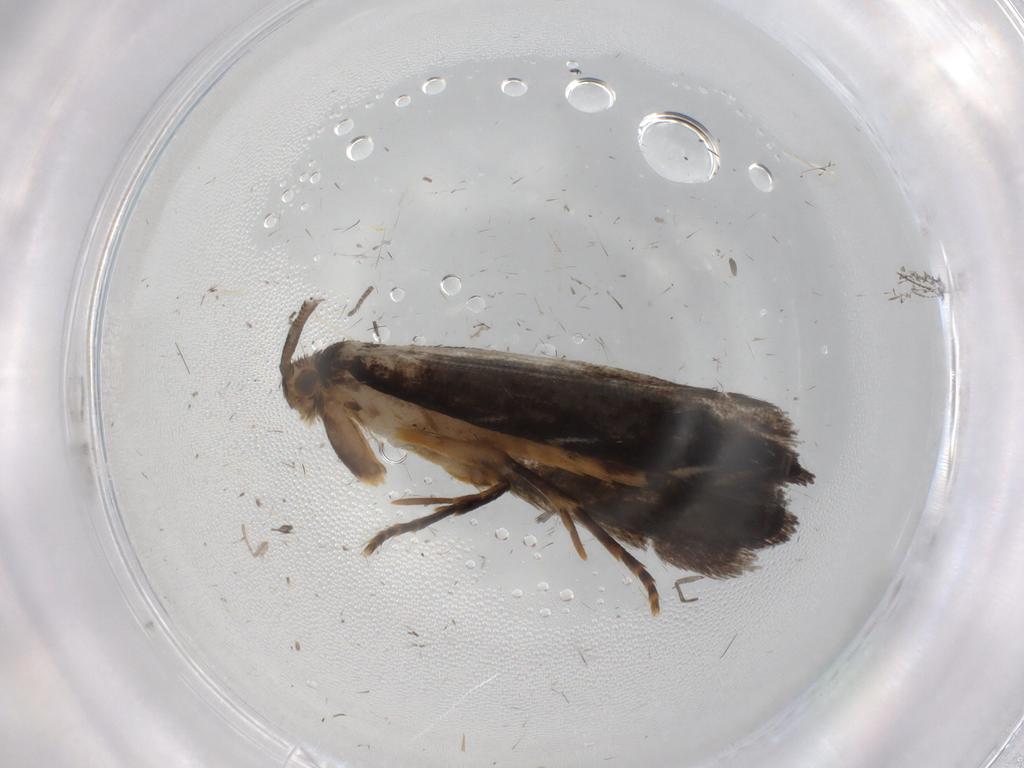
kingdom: Animalia
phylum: Arthropoda
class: Insecta
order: Lepidoptera
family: Dryadaulidae
